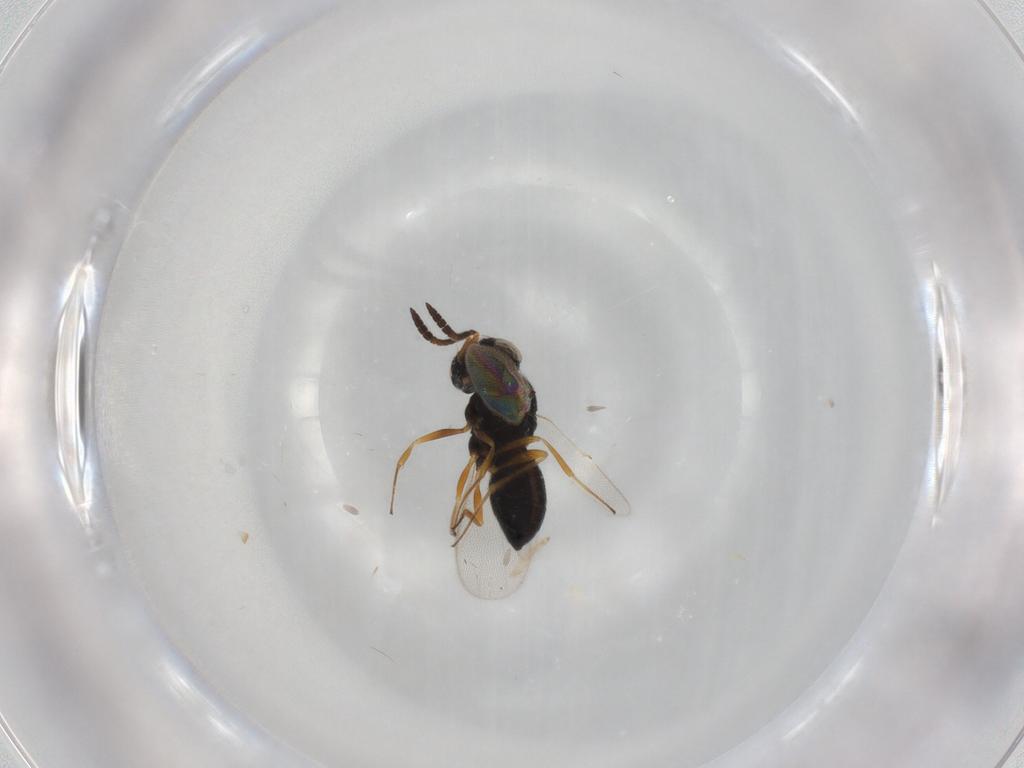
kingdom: Animalia
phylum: Arthropoda
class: Insecta
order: Hymenoptera
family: Scelionidae
